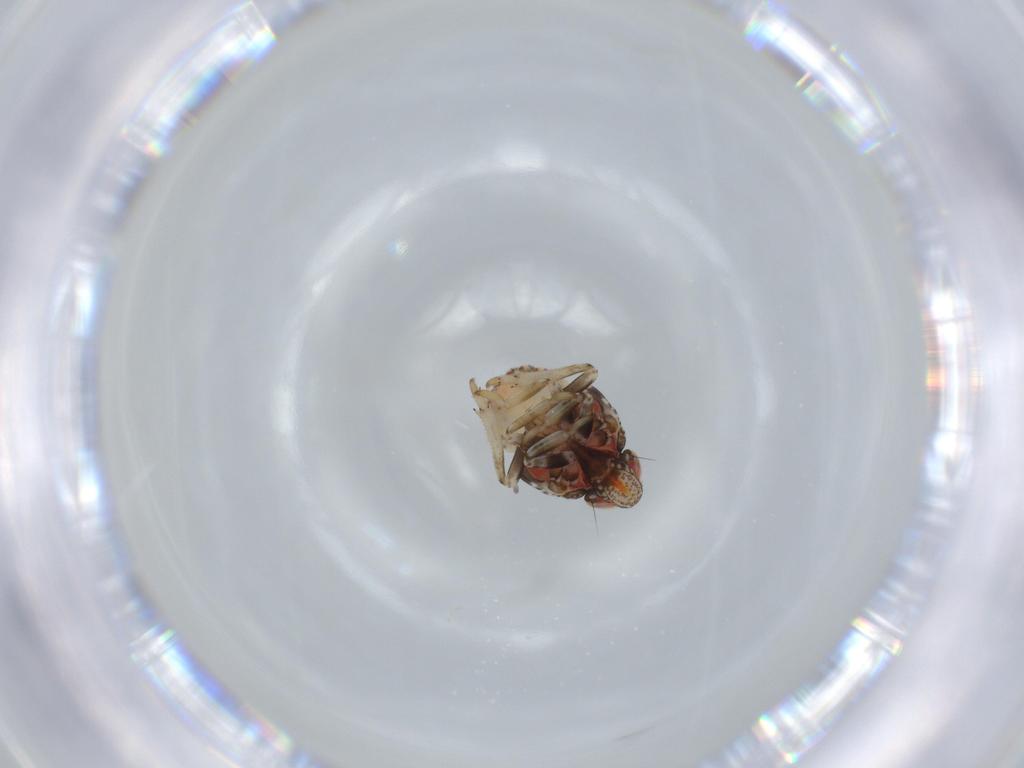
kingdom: Animalia
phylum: Arthropoda
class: Insecta
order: Hemiptera
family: Issidae
